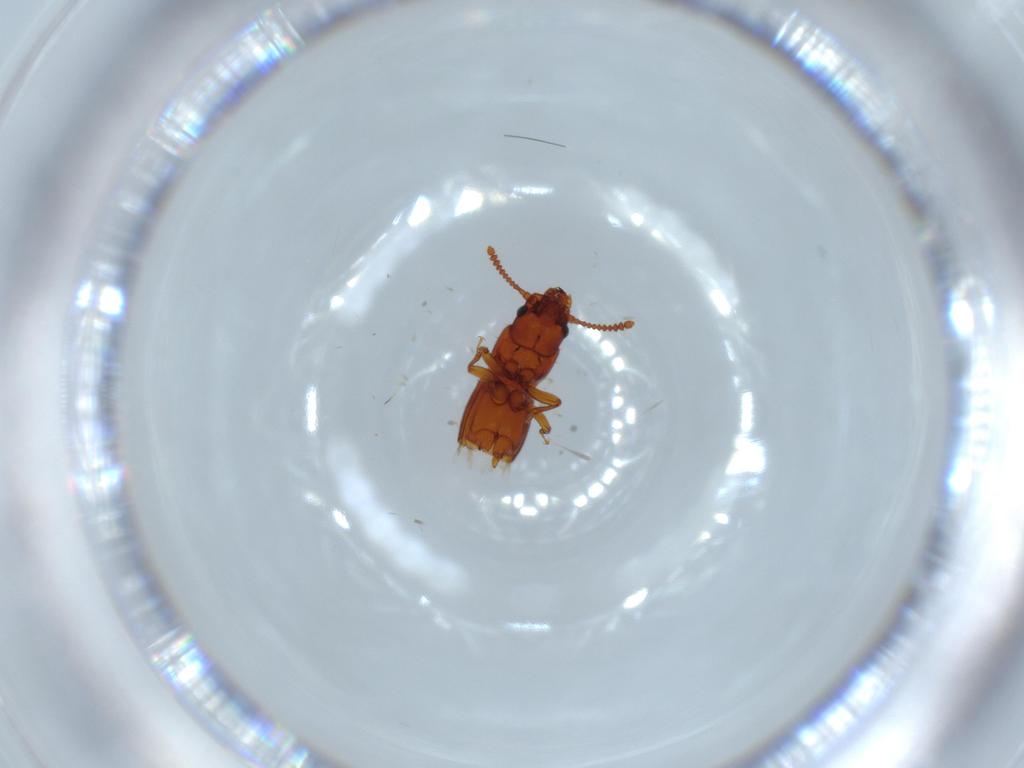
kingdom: Animalia
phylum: Arthropoda
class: Insecta
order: Coleoptera
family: Staphylinidae
